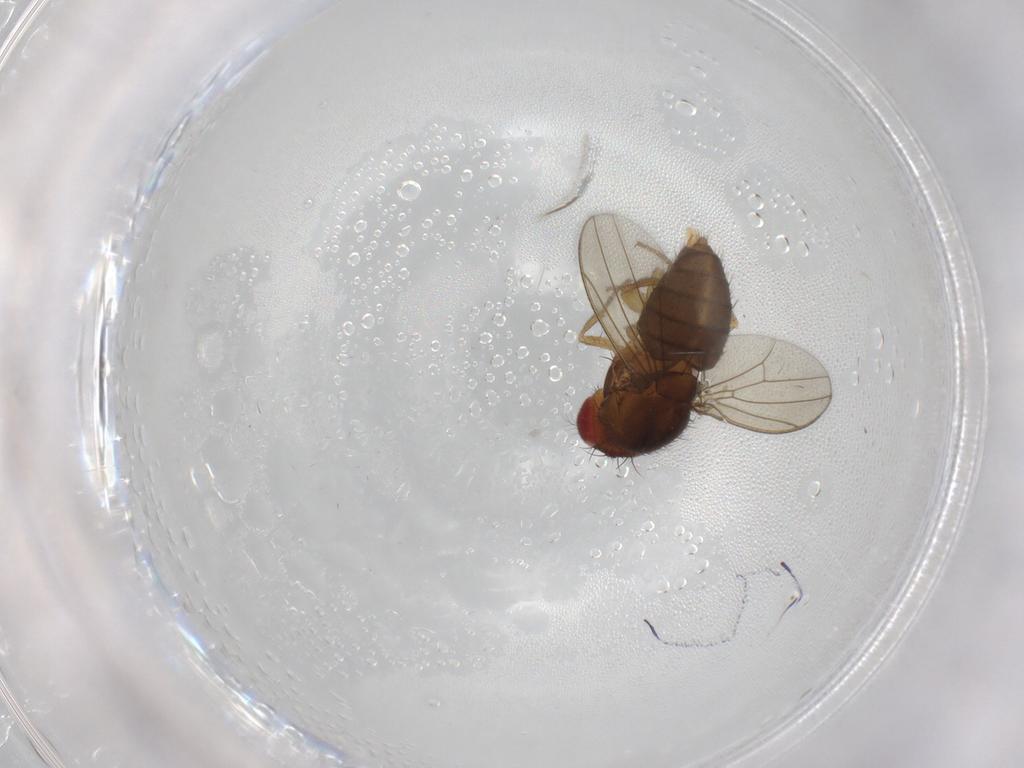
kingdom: Animalia
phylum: Arthropoda
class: Insecta
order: Diptera
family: Drosophilidae
